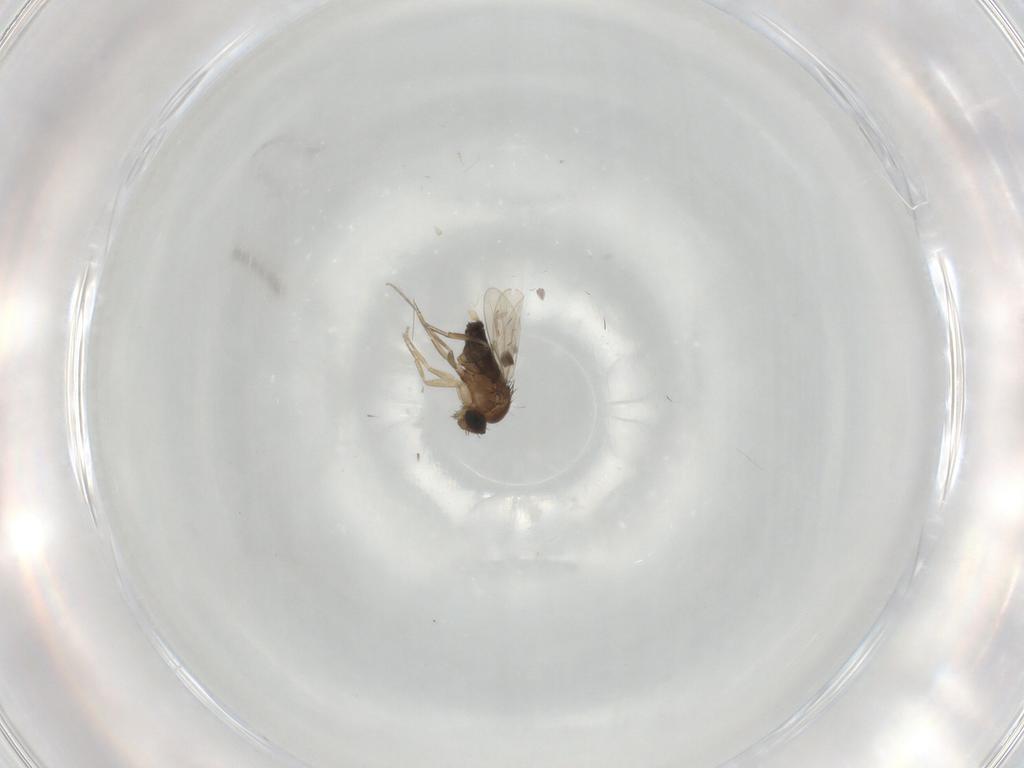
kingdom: Animalia
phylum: Arthropoda
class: Insecta
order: Diptera
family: Phoridae
